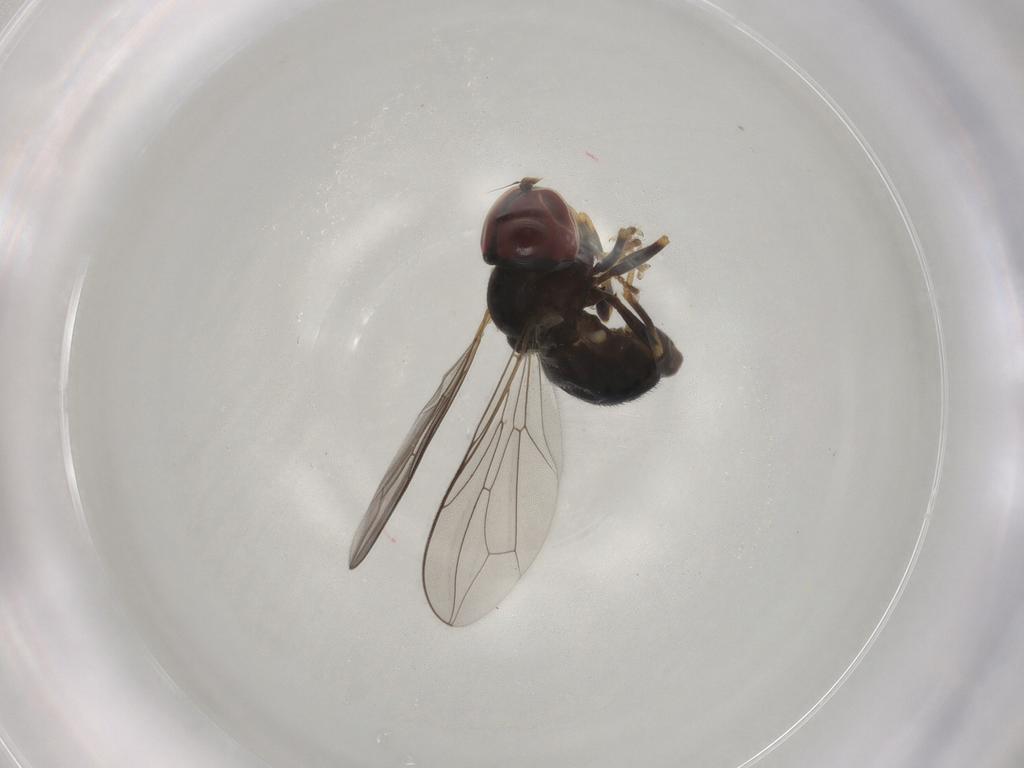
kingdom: Animalia
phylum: Arthropoda
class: Insecta
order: Diptera
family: Pipunculidae
